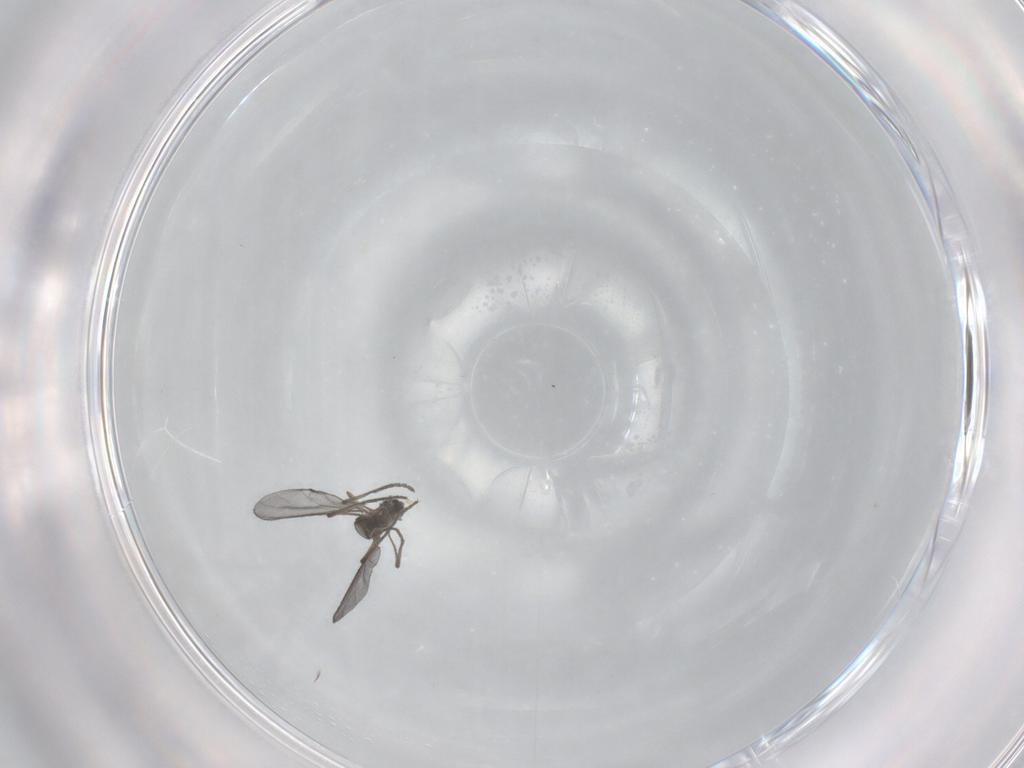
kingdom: Animalia
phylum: Arthropoda
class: Insecta
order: Diptera
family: Sciaridae
